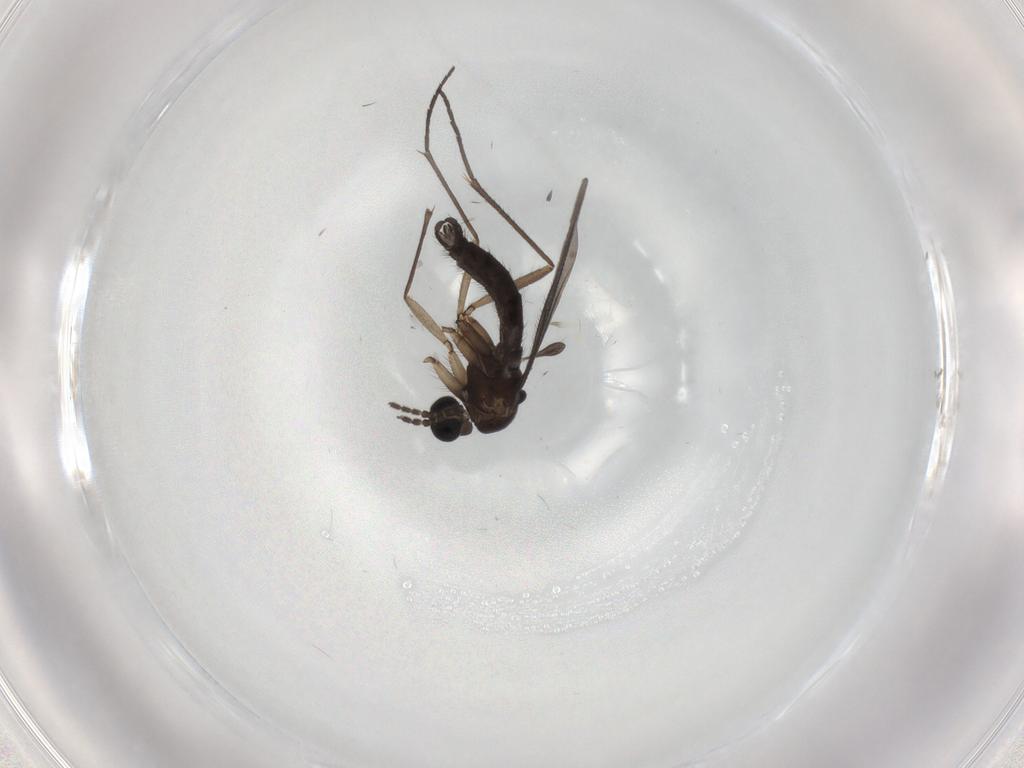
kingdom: Animalia
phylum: Arthropoda
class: Insecta
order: Diptera
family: Sciaridae
